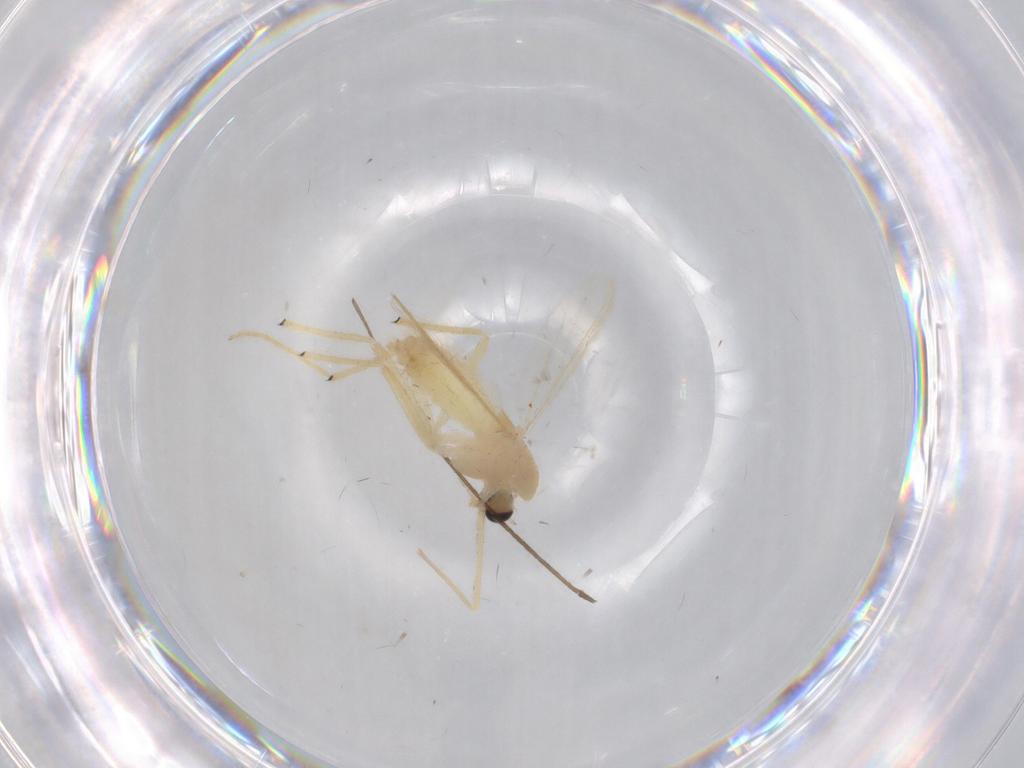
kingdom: Animalia
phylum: Arthropoda
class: Insecta
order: Diptera
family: Chironomidae
